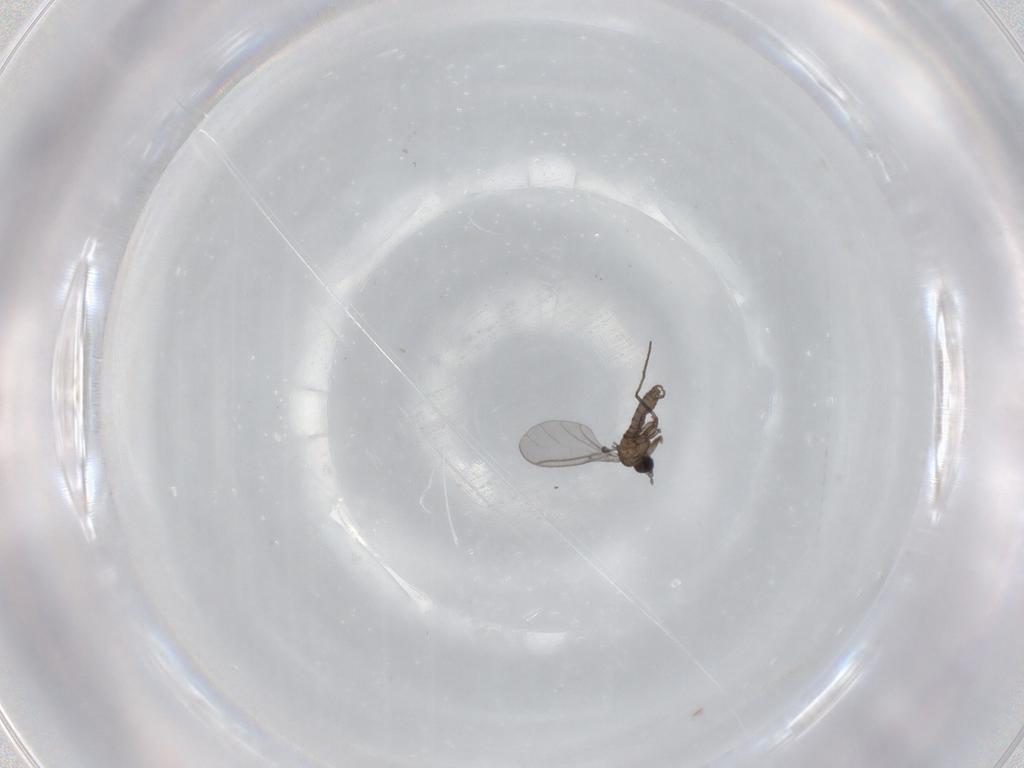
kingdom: Animalia
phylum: Arthropoda
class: Insecta
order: Diptera
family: Sciaridae
